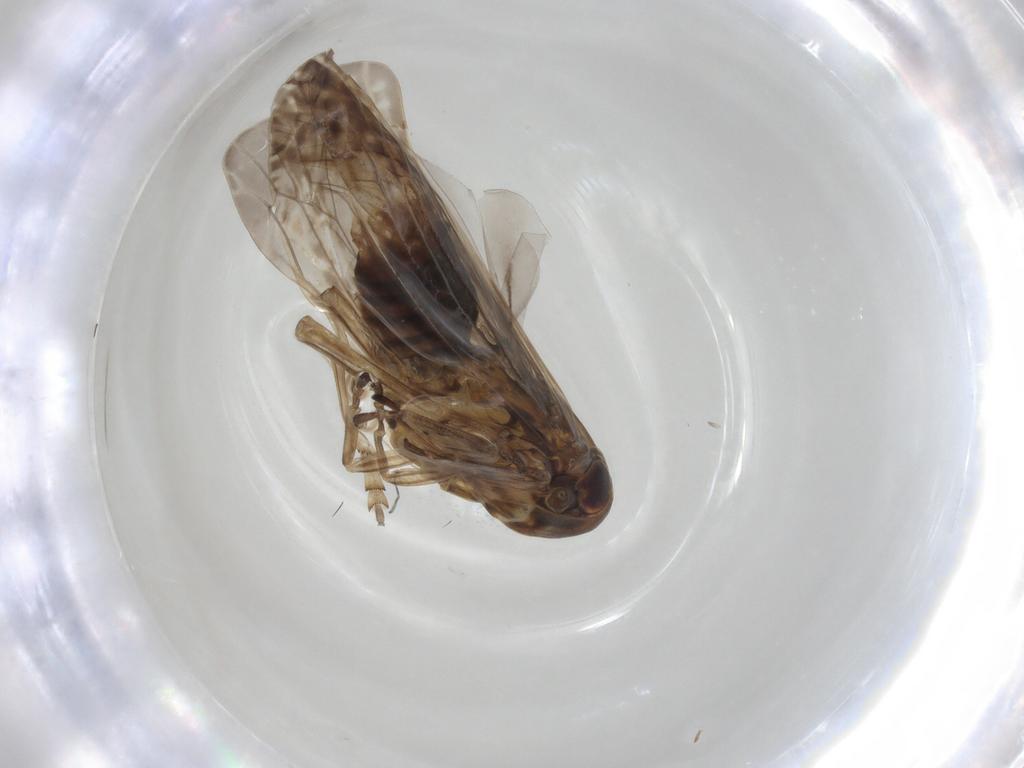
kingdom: Animalia
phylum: Arthropoda
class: Insecta
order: Hemiptera
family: Achilidae
